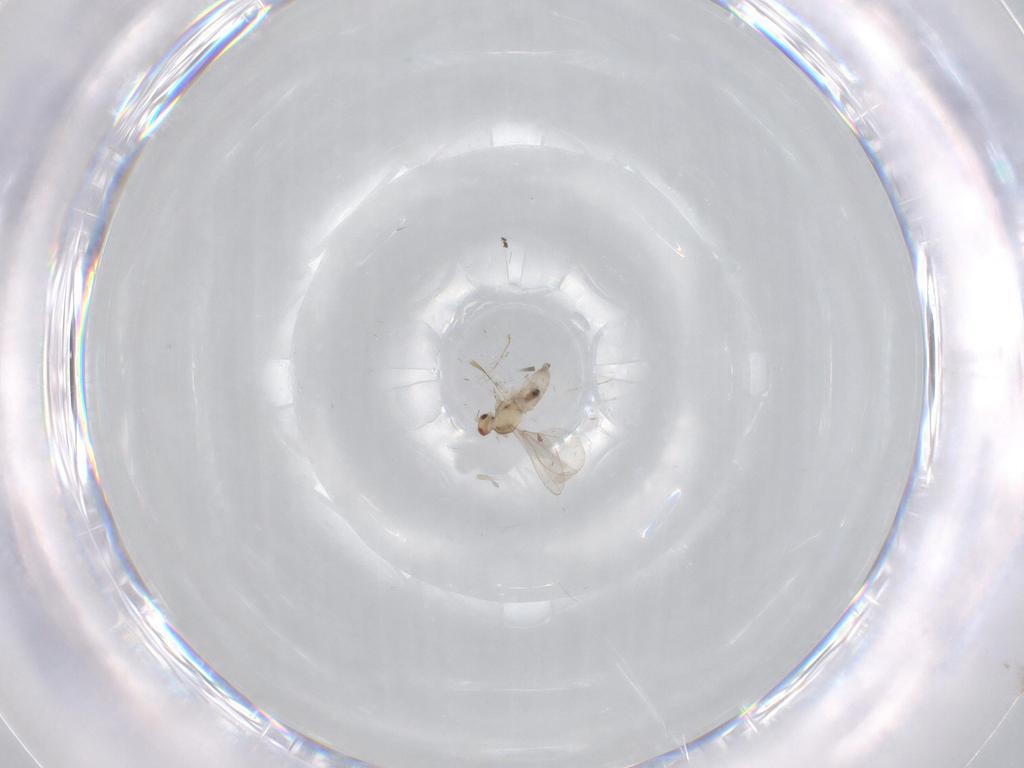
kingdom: Animalia
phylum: Arthropoda
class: Insecta
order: Diptera
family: Cecidomyiidae
